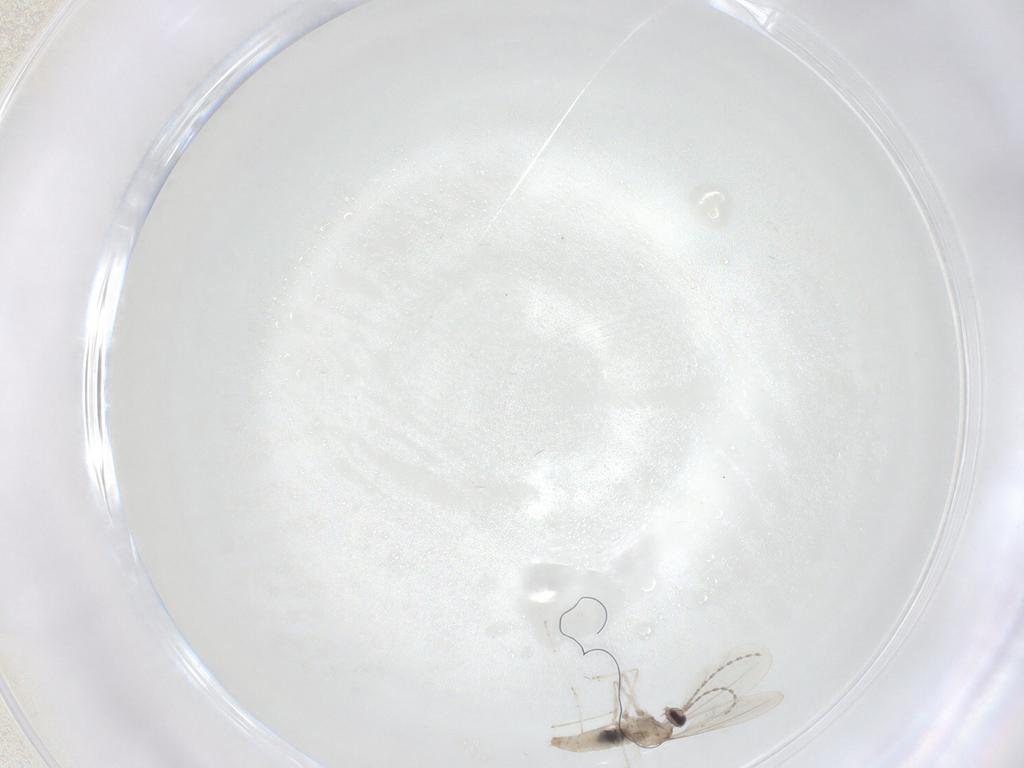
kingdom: Animalia
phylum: Arthropoda
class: Insecta
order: Diptera
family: Cecidomyiidae
